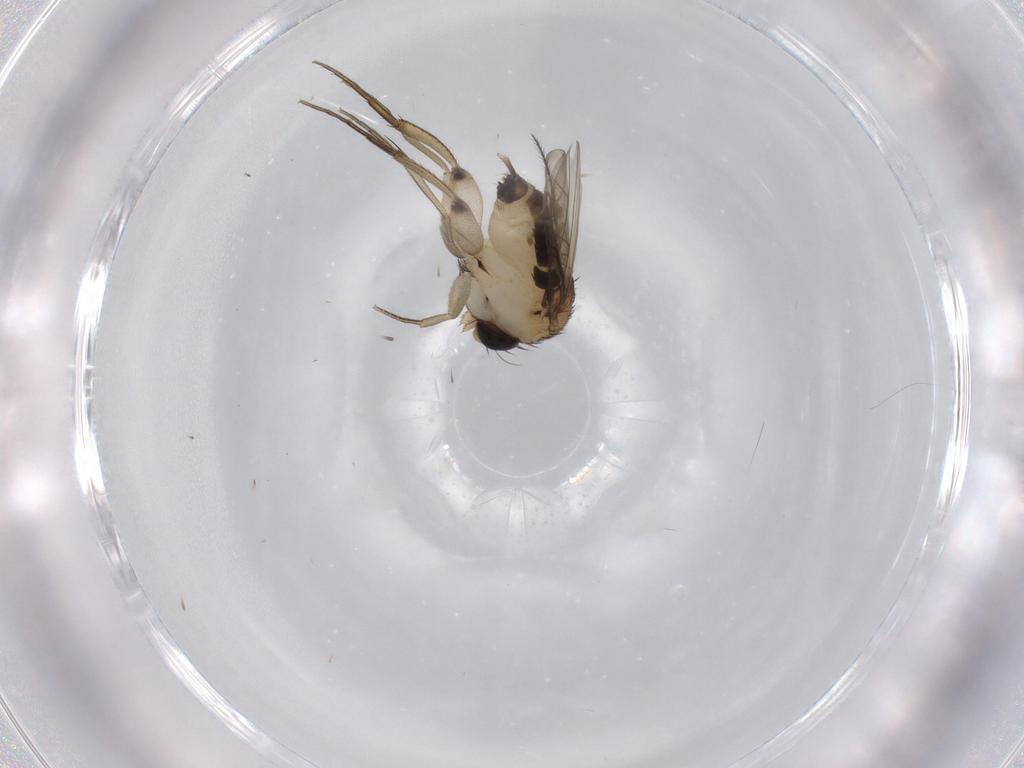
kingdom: Animalia
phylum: Arthropoda
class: Insecta
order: Diptera
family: Phoridae
